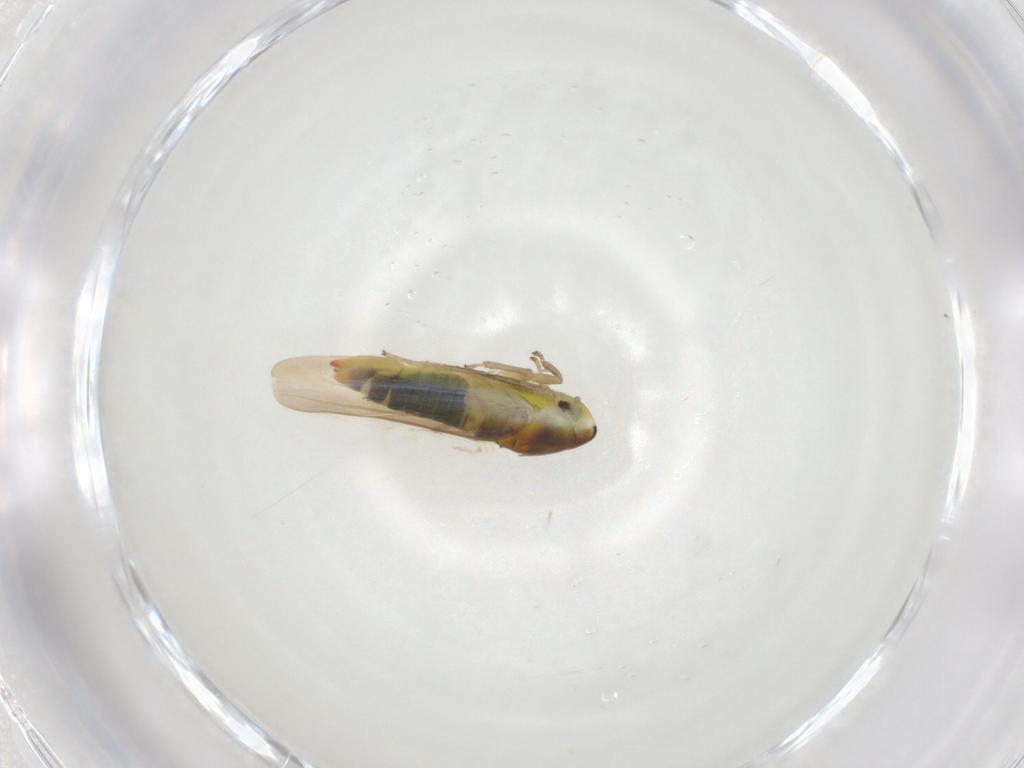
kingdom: Animalia
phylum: Arthropoda
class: Insecta
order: Hemiptera
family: Cicadellidae
